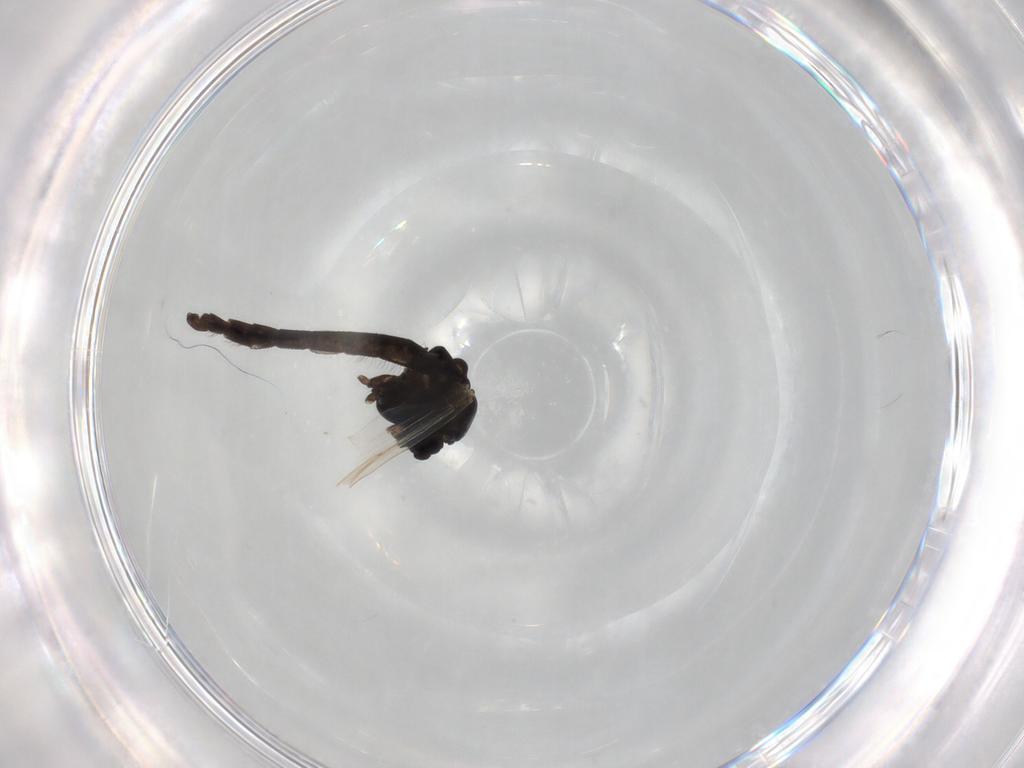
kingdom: Animalia
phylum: Arthropoda
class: Insecta
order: Diptera
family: Chironomidae
